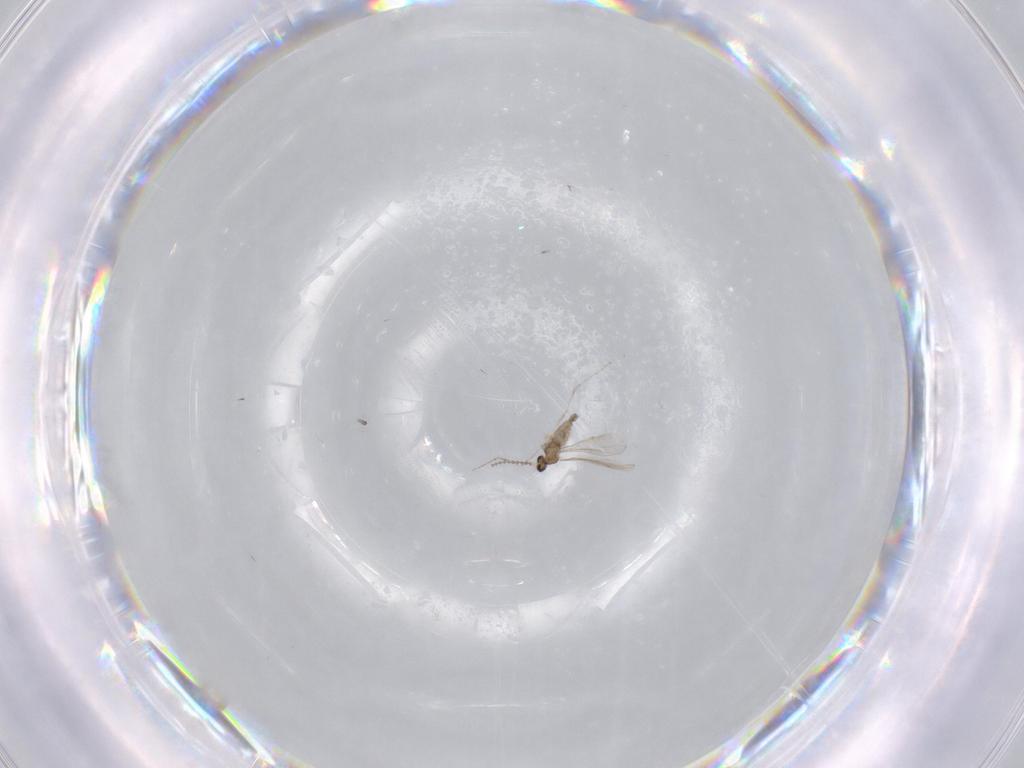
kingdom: Animalia
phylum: Arthropoda
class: Insecta
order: Diptera
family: Cecidomyiidae
